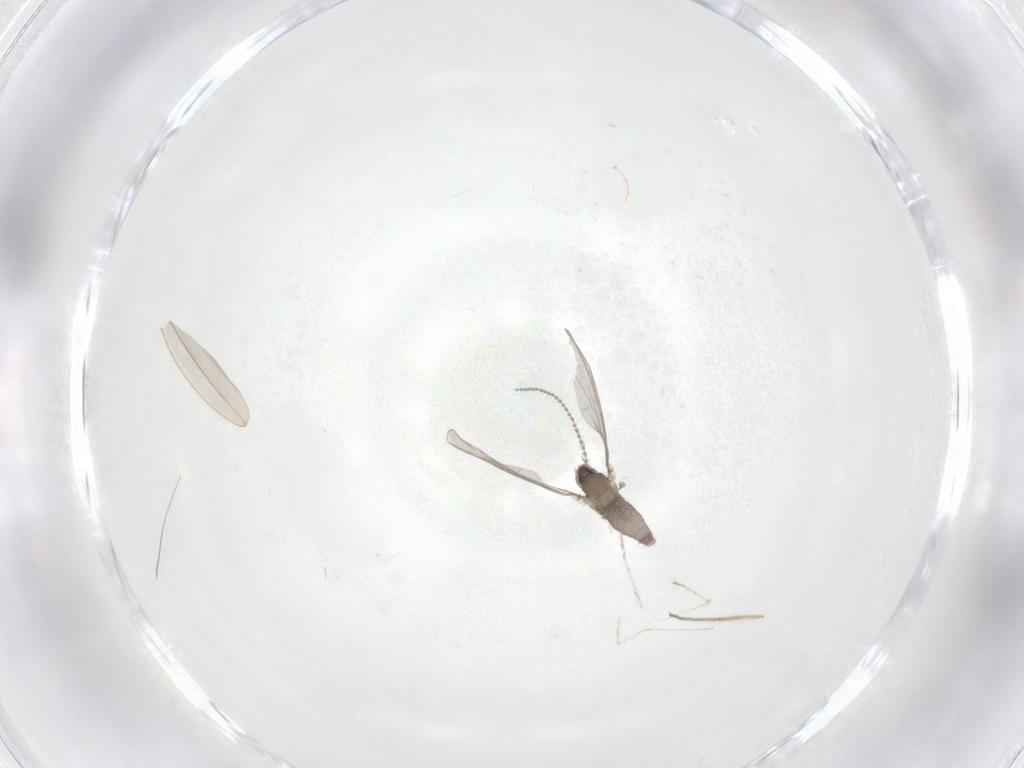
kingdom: Animalia
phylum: Arthropoda
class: Insecta
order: Diptera
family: Cecidomyiidae
